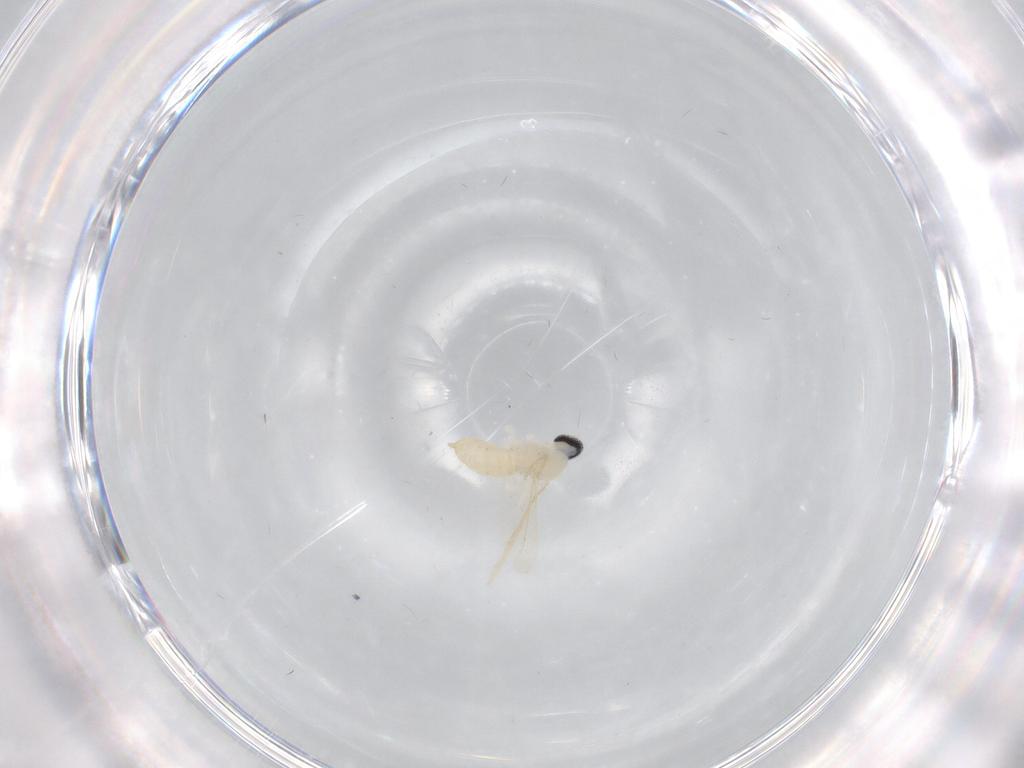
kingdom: Animalia
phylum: Arthropoda
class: Insecta
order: Diptera
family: Cecidomyiidae
